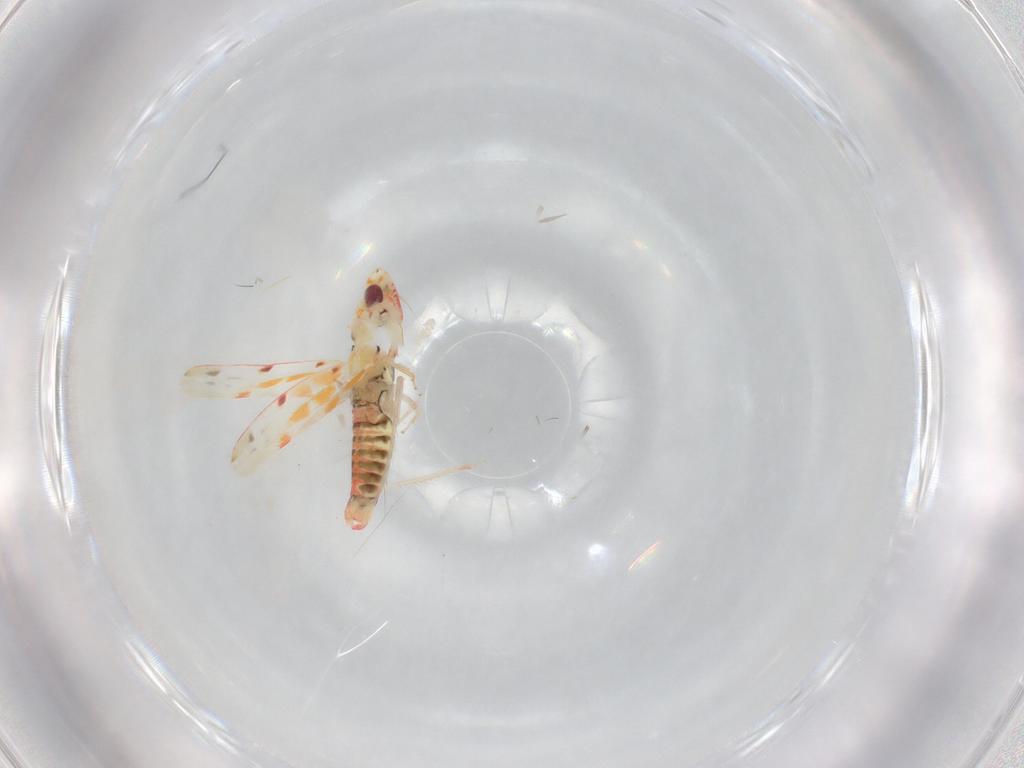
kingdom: Animalia
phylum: Arthropoda
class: Insecta
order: Hemiptera
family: Cicadellidae
